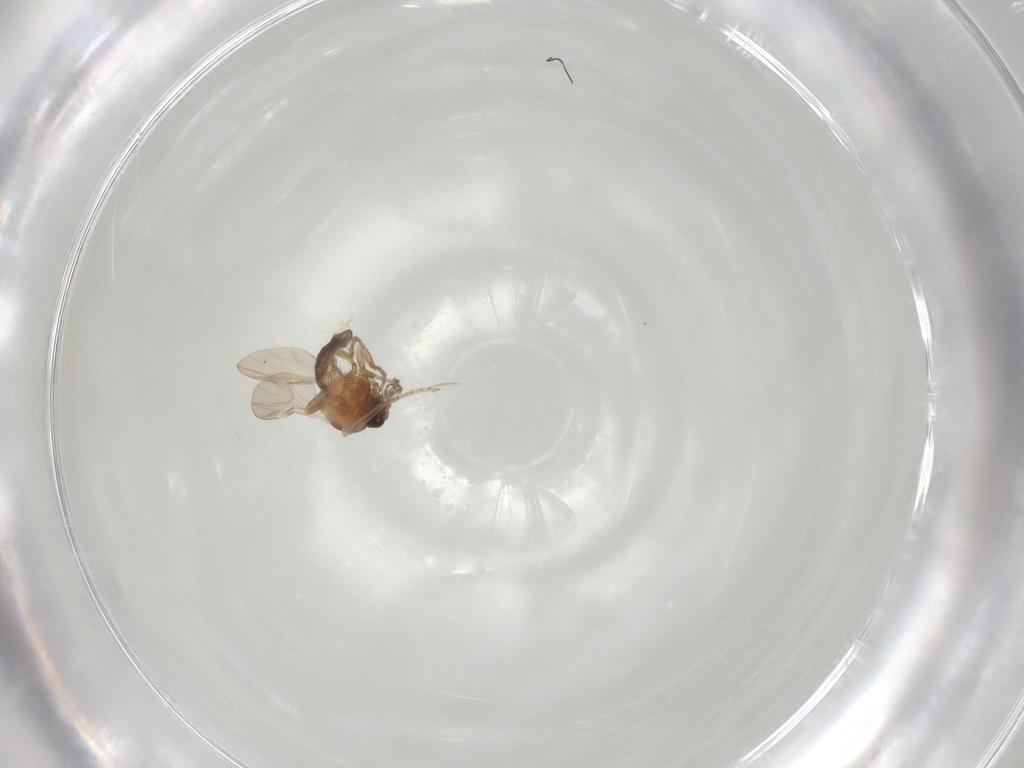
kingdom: Animalia
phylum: Arthropoda
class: Insecta
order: Diptera
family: Ceratopogonidae
